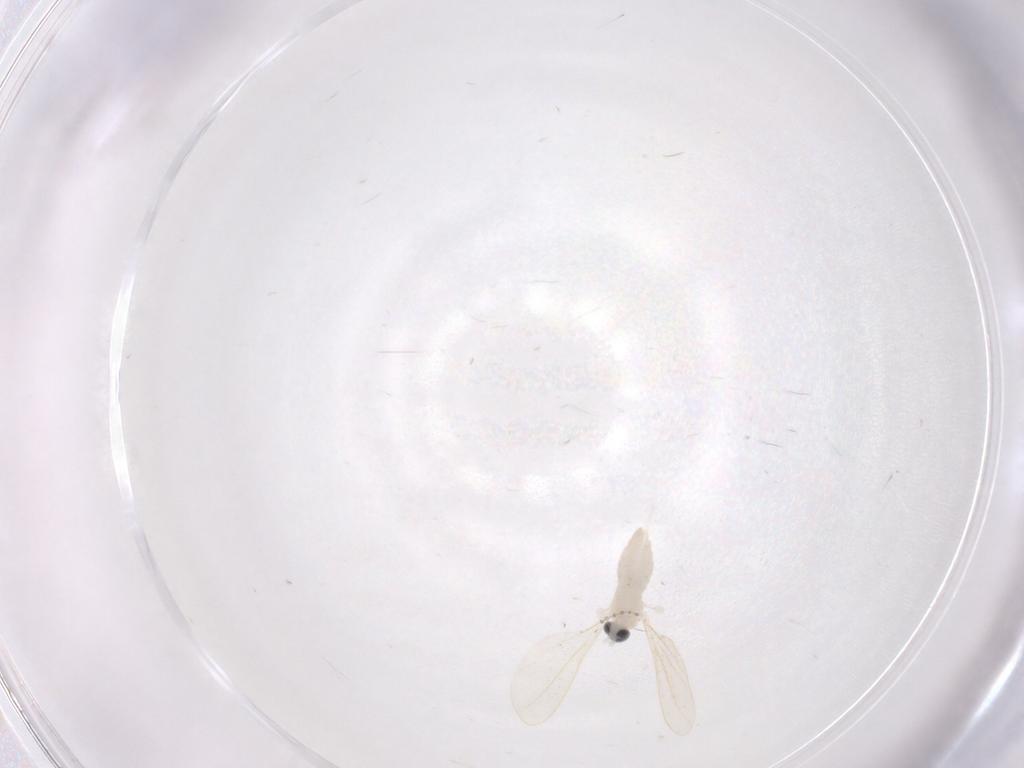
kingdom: Animalia
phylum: Arthropoda
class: Insecta
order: Diptera
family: Cecidomyiidae
